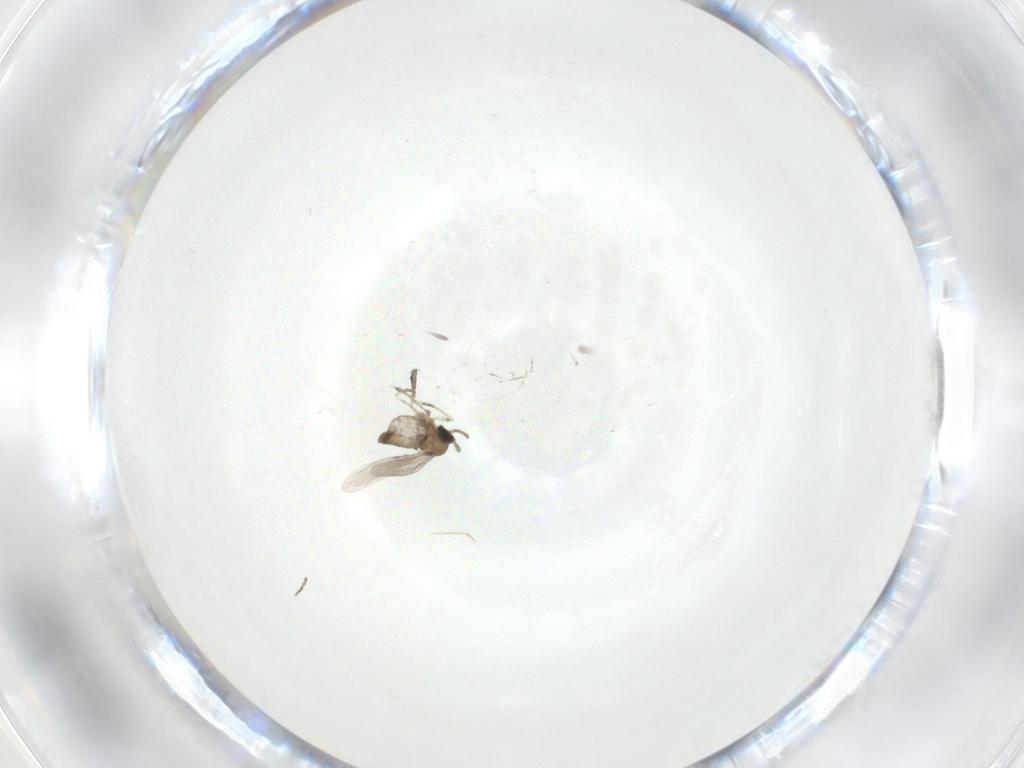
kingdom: Animalia
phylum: Arthropoda
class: Insecta
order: Diptera
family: Cecidomyiidae
